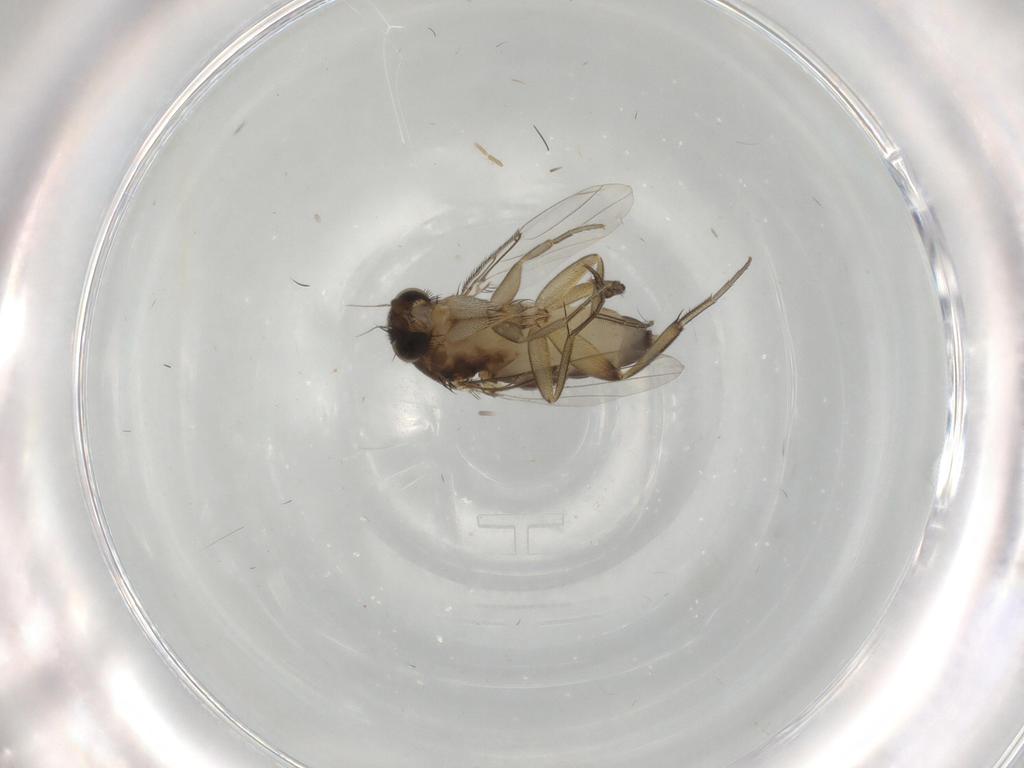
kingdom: Animalia
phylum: Arthropoda
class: Insecta
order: Diptera
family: Phoridae
